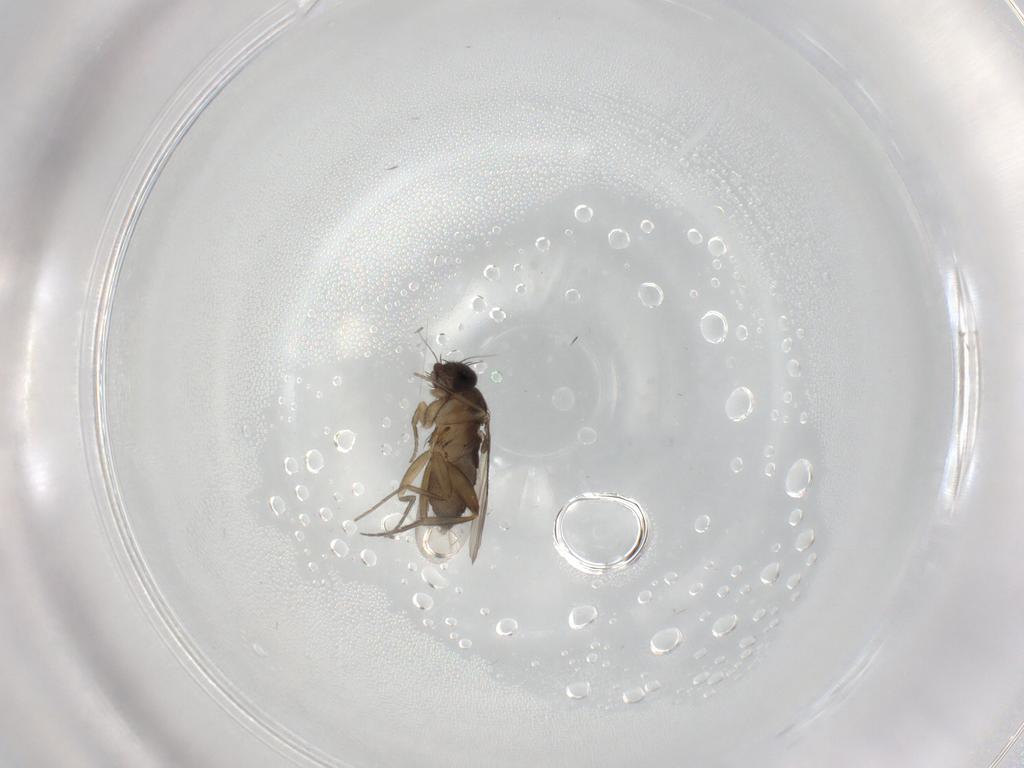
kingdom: Animalia
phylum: Arthropoda
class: Insecta
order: Diptera
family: Phoridae
